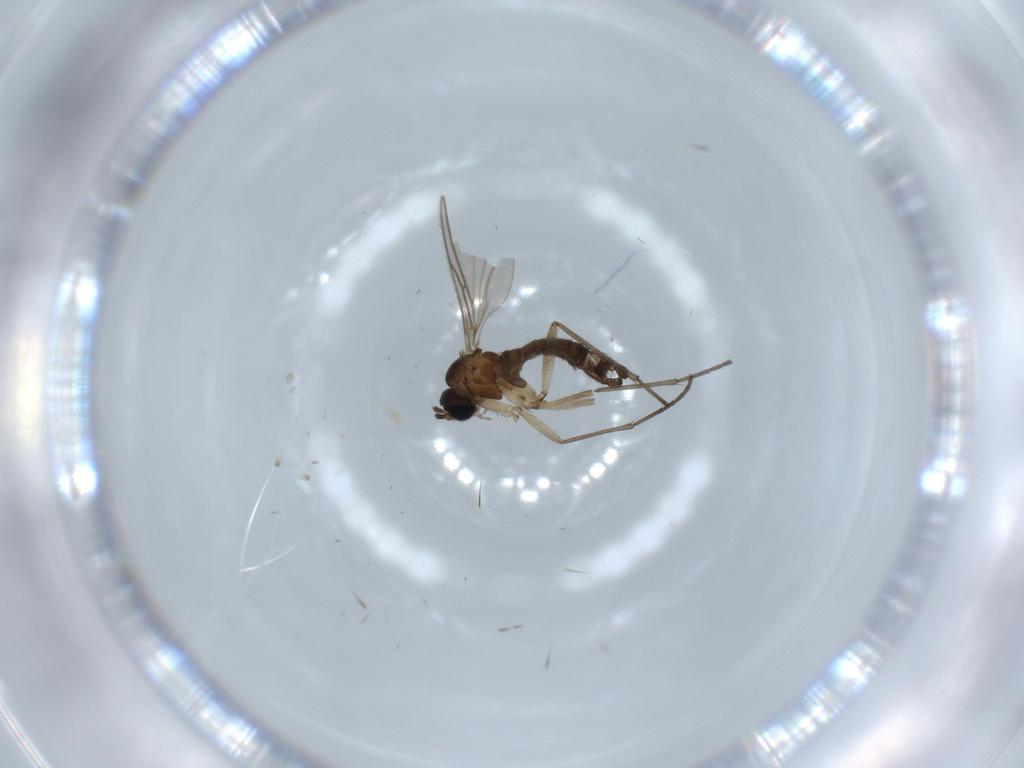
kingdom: Animalia
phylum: Arthropoda
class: Insecta
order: Diptera
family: Sciaridae
